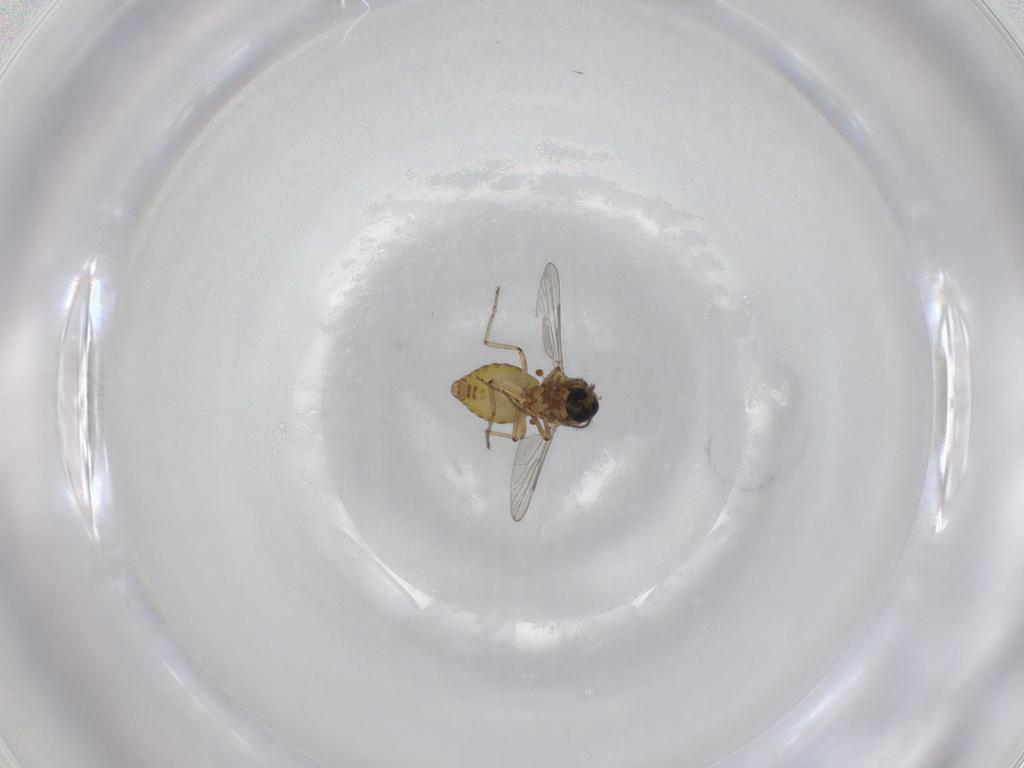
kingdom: Animalia
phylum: Arthropoda
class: Insecta
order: Diptera
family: Ceratopogonidae
